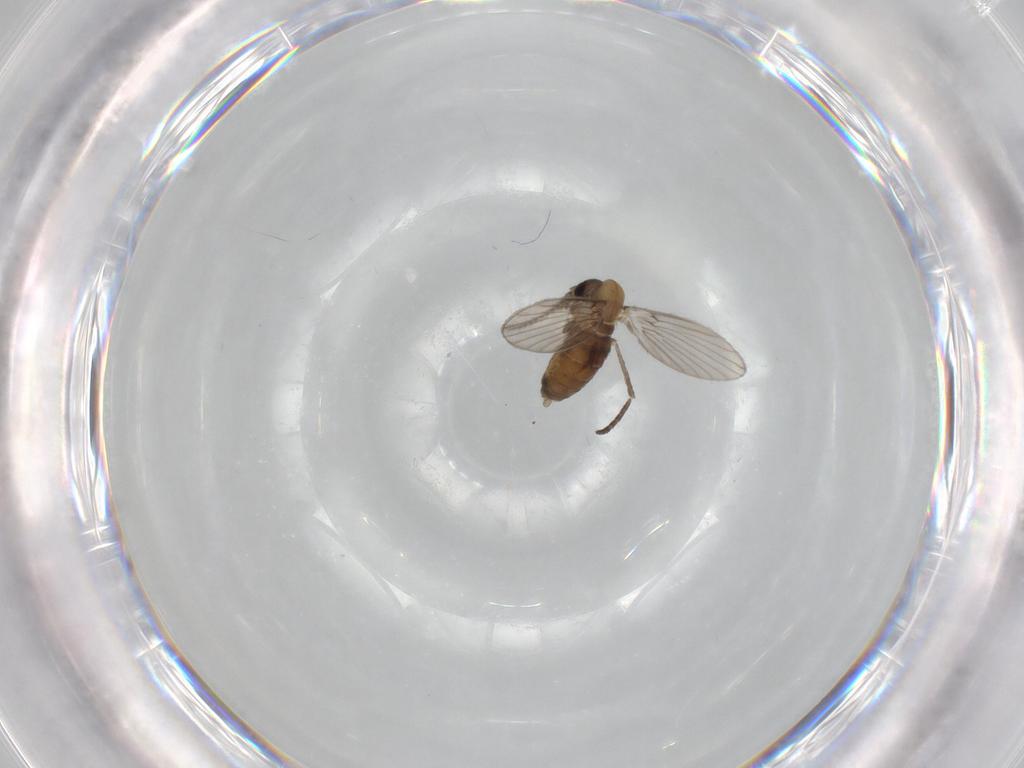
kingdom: Animalia
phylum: Arthropoda
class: Insecta
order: Diptera
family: Psychodidae
